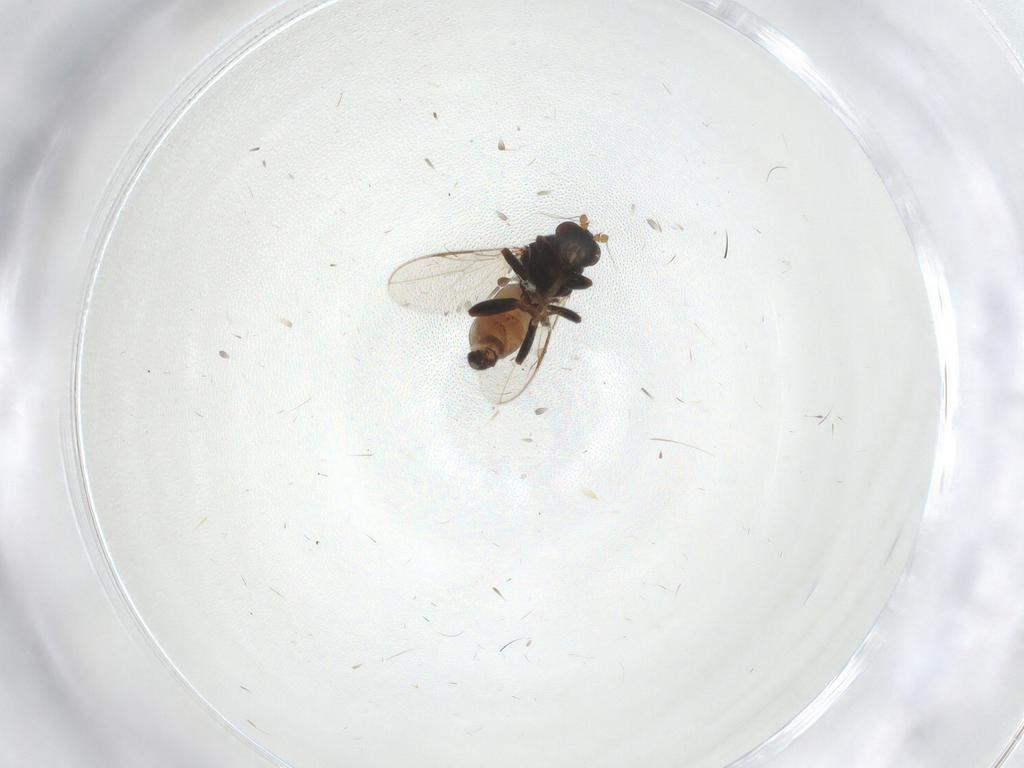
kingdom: Animalia
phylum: Arthropoda
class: Insecta
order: Diptera
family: Sphaeroceridae
